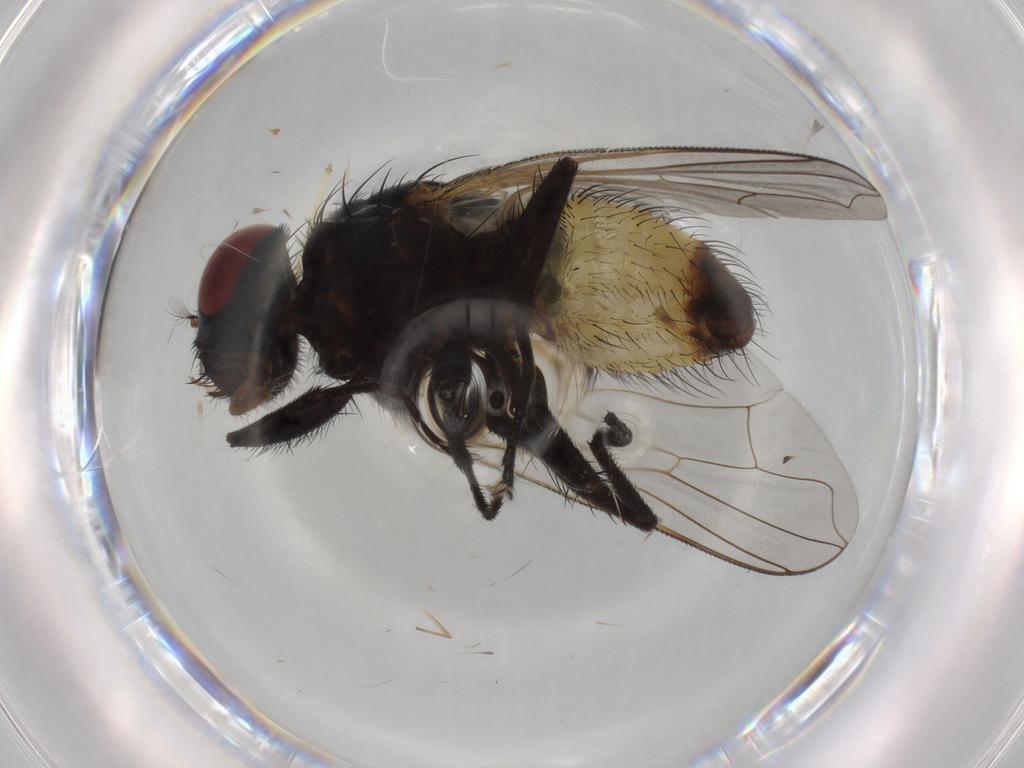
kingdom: Animalia
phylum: Arthropoda
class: Insecta
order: Diptera
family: Muscidae
